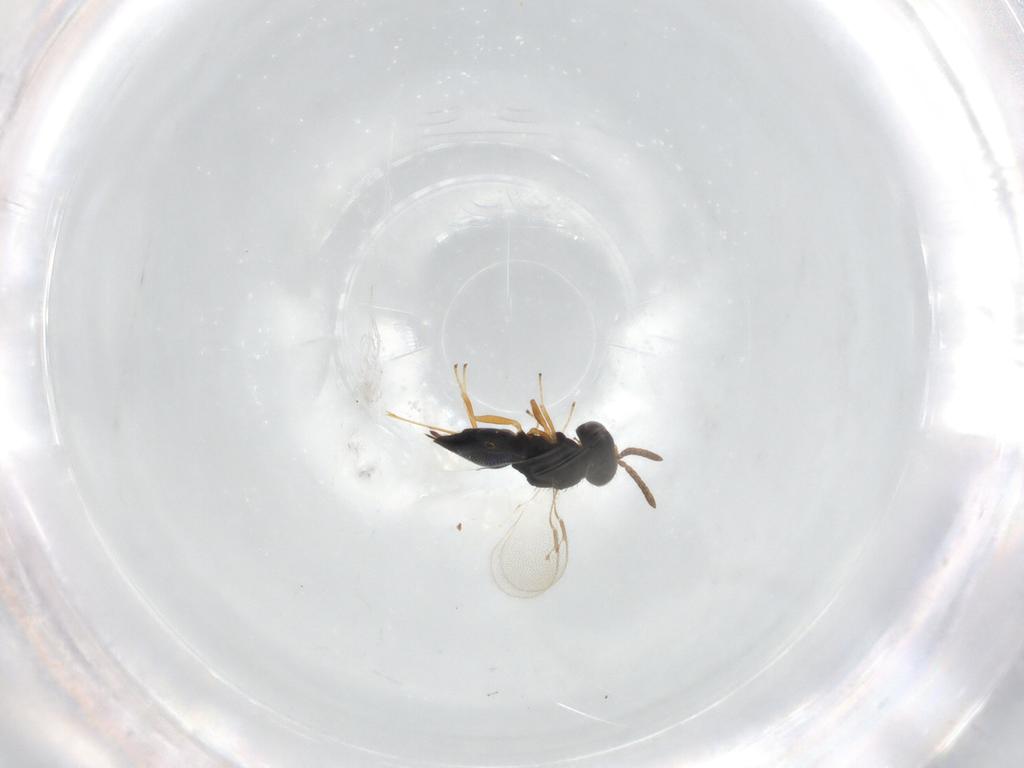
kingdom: Animalia
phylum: Arthropoda
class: Insecta
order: Hymenoptera
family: Pteromalidae
